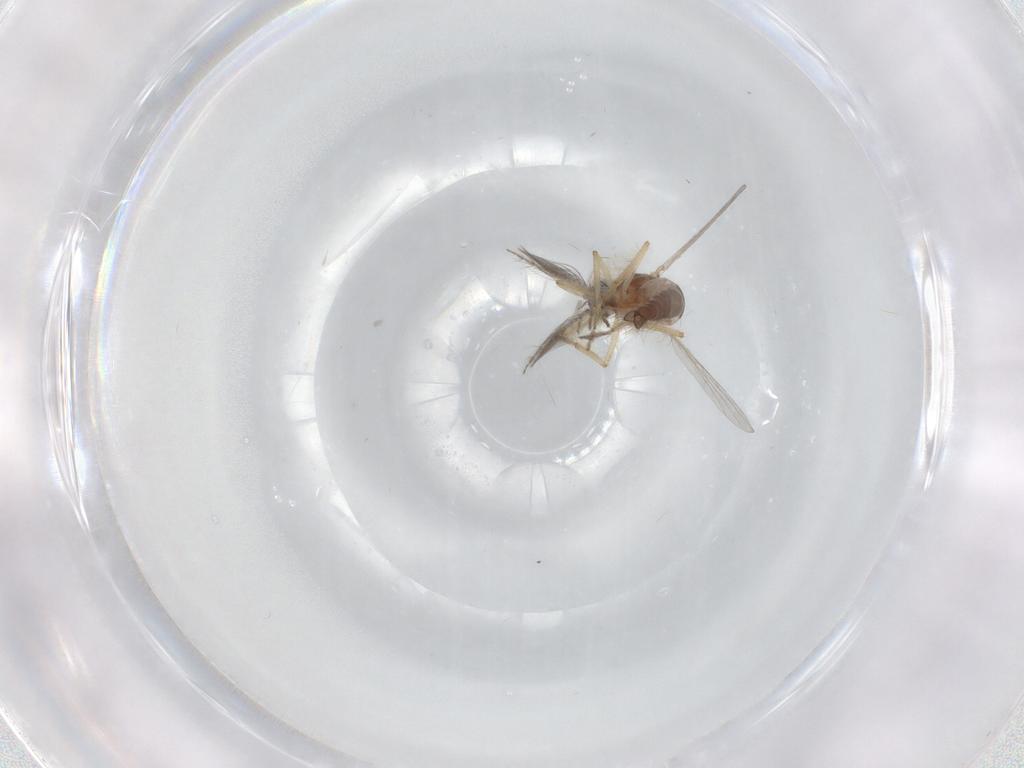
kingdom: Animalia
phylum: Arthropoda
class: Insecta
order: Diptera
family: Ceratopogonidae
